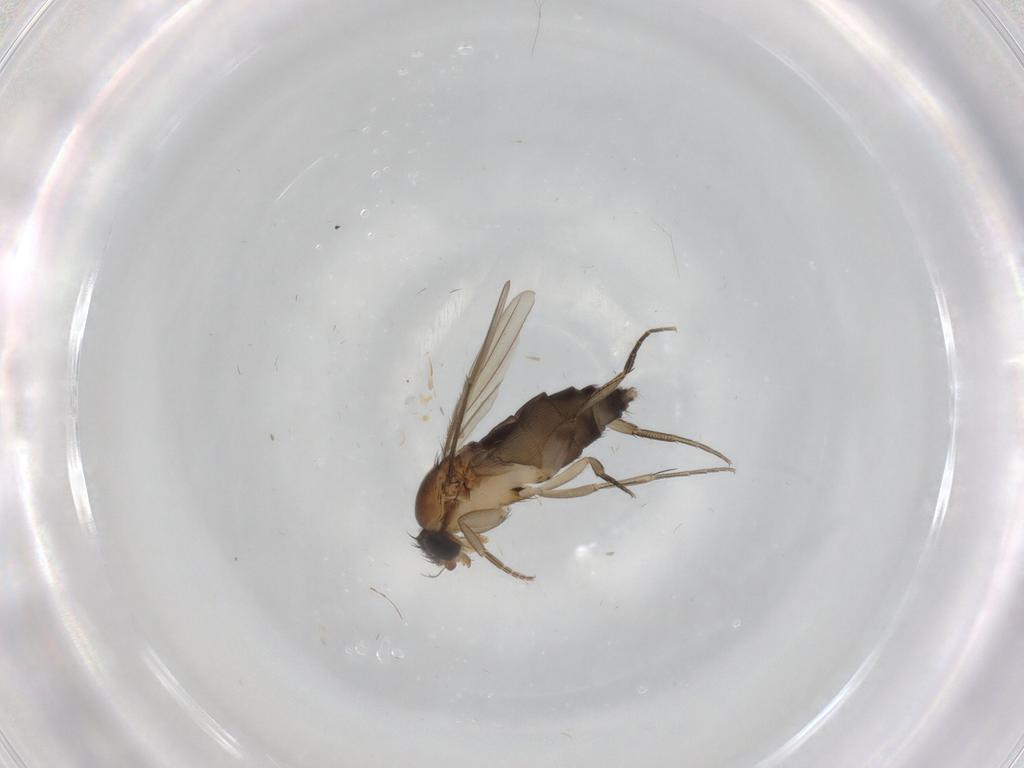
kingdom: Animalia
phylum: Arthropoda
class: Insecta
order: Diptera
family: Phoridae
